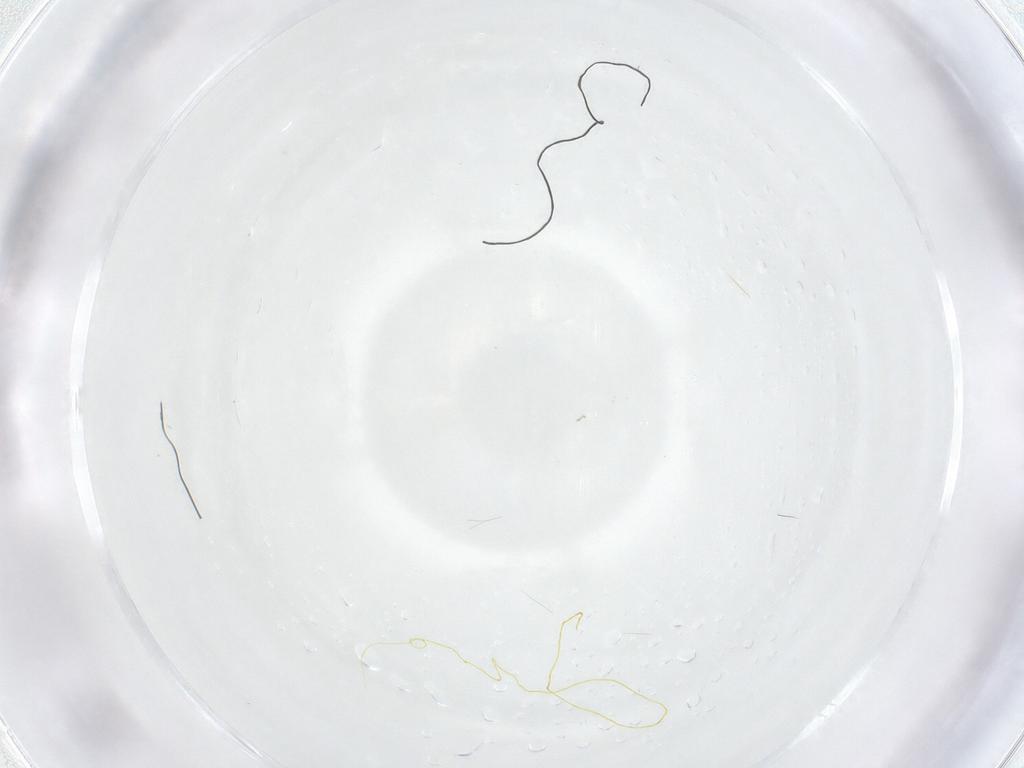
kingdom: Animalia
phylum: Arthropoda
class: Insecta
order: Diptera
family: Dolichopodidae
